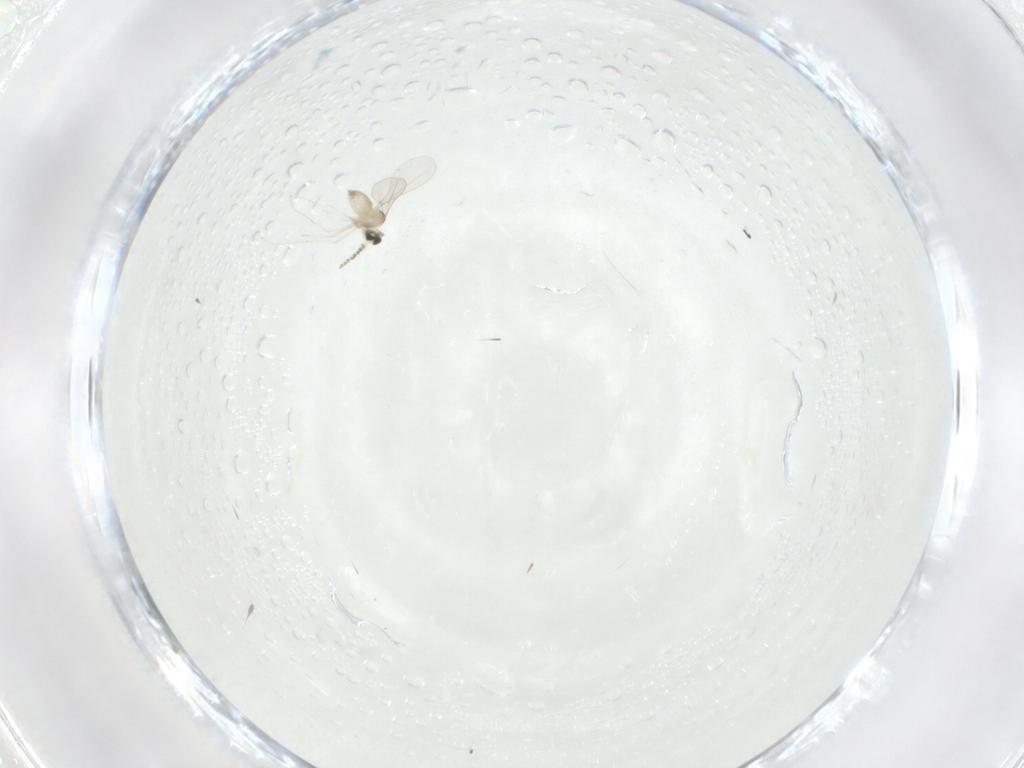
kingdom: Animalia
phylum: Arthropoda
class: Insecta
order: Diptera
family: Cecidomyiidae
